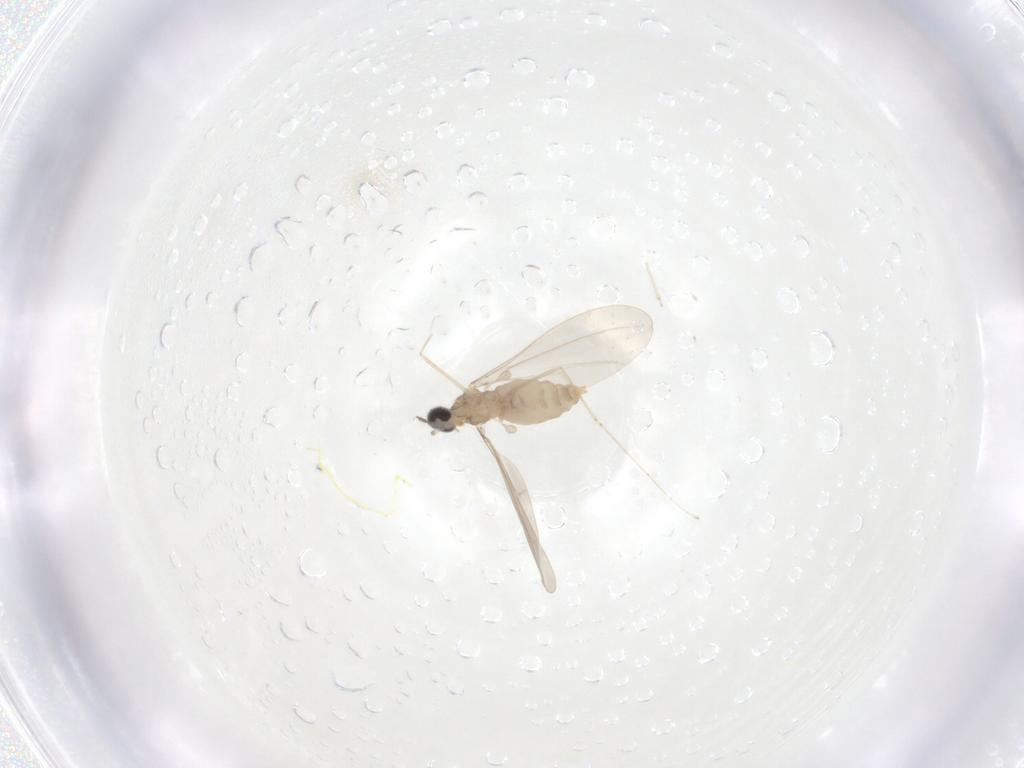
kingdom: Animalia
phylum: Arthropoda
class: Insecta
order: Diptera
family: Cecidomyiidae
